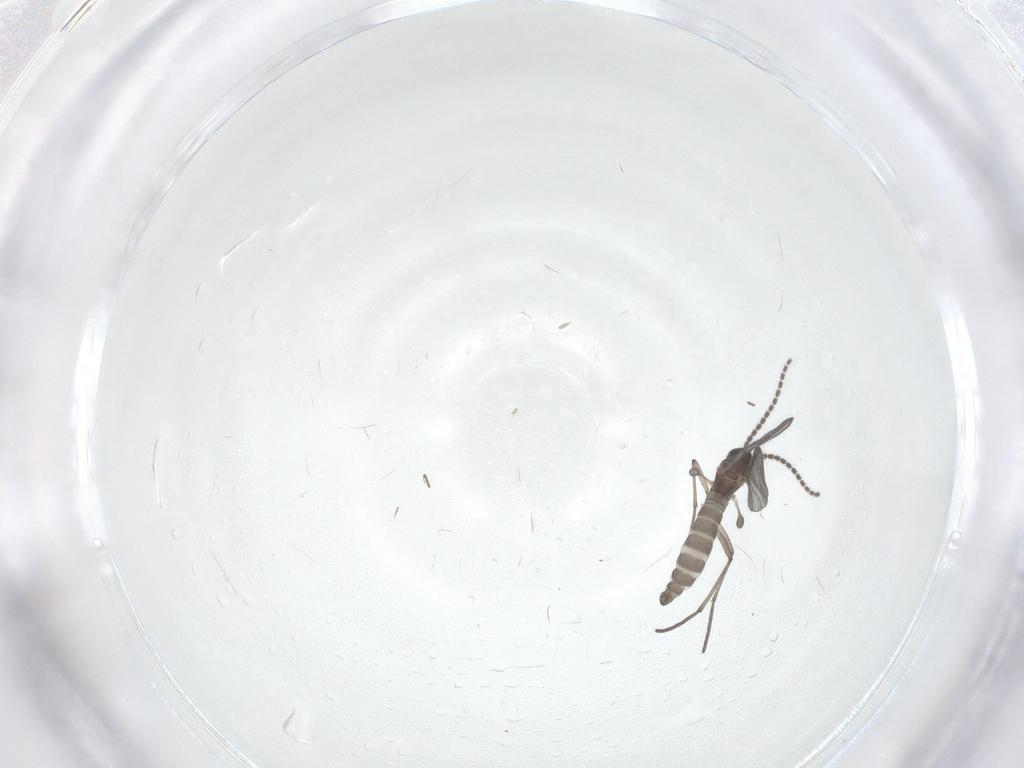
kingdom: Animalia
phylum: Arthropoda
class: Insecta
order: Diptera
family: Cecidomyiidae
